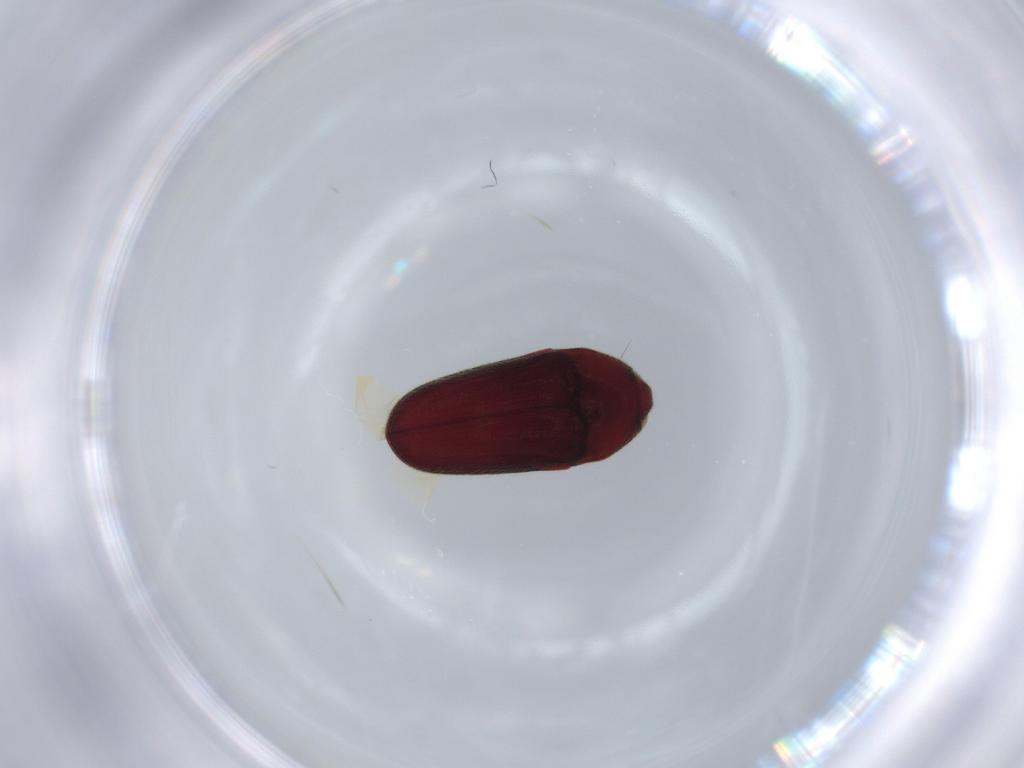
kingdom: Animalia
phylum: Arthropoda
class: Insecta
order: Coleoptera
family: Throscidae
